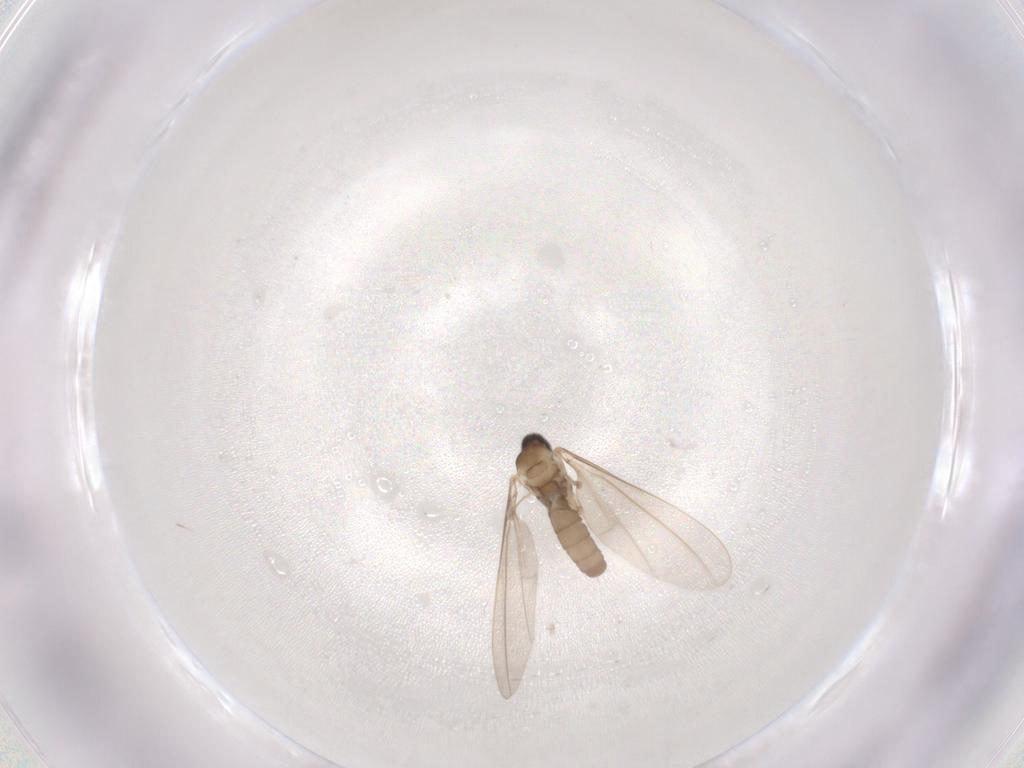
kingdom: Animalia
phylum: Arthropoda
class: Insecta
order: Diptera
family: Cecidomyiidae
